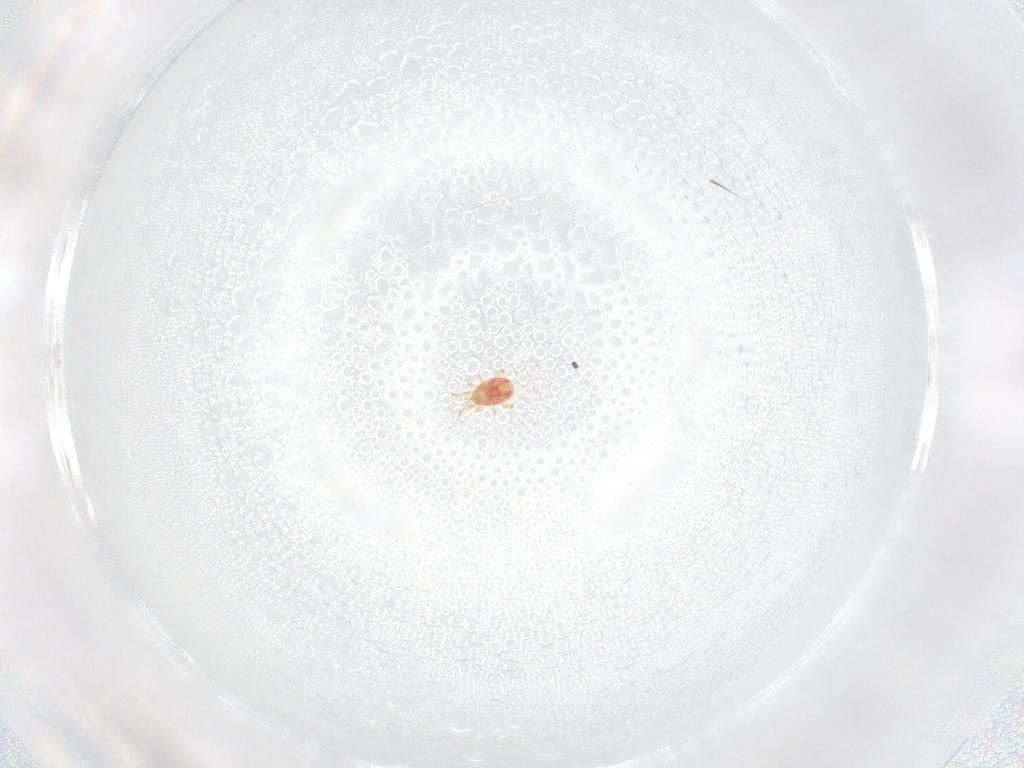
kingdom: Animalia
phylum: Arthropoda
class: Arachnida
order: Mesostigmata
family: Phytoseiidae
